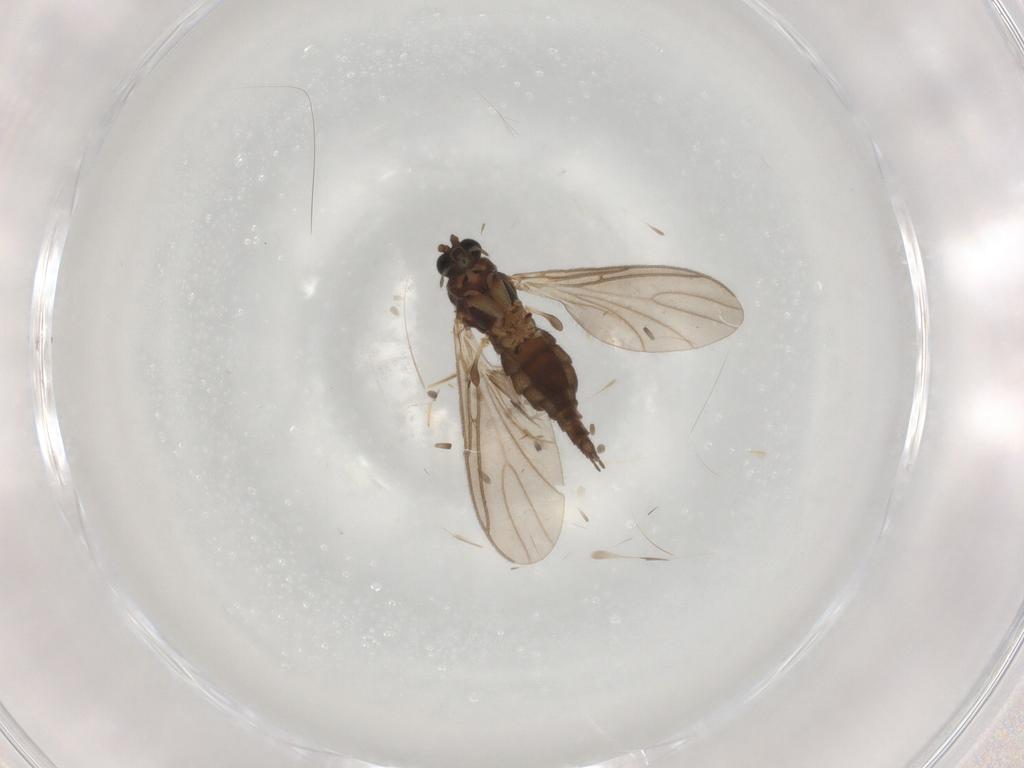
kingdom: Animalia
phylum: Arthropoda
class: Insecta
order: Diptera
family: Sciaridae
